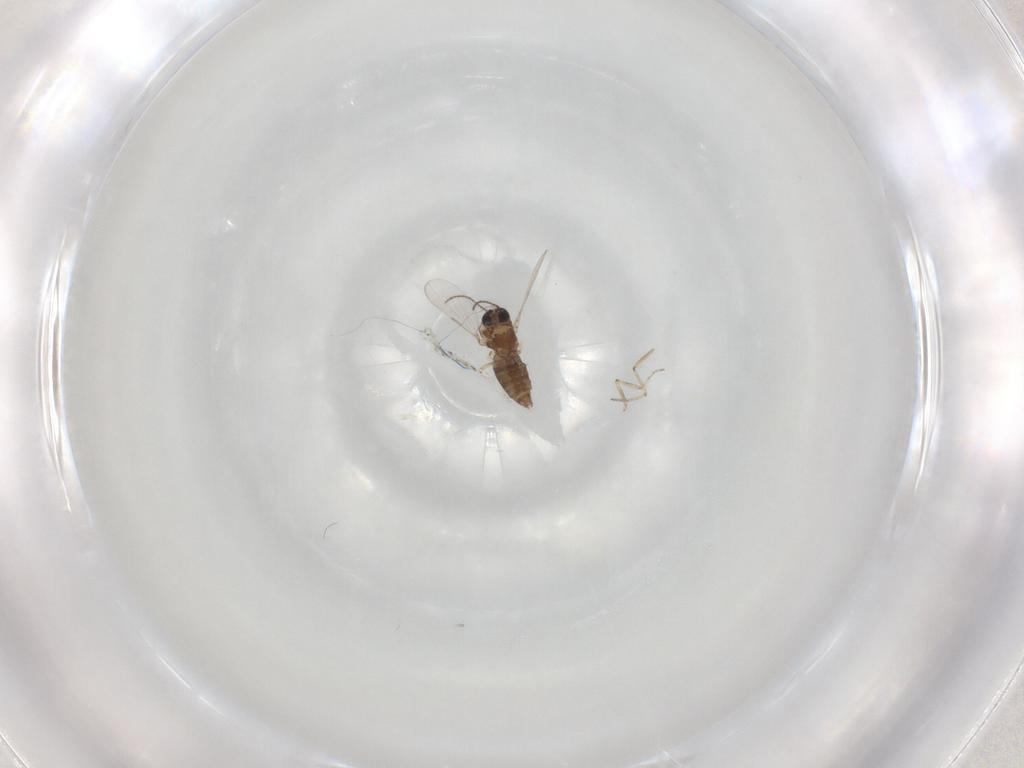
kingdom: Animalia
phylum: Arthropoda
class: Insecta
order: Diptera
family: Ceratopogonidae
